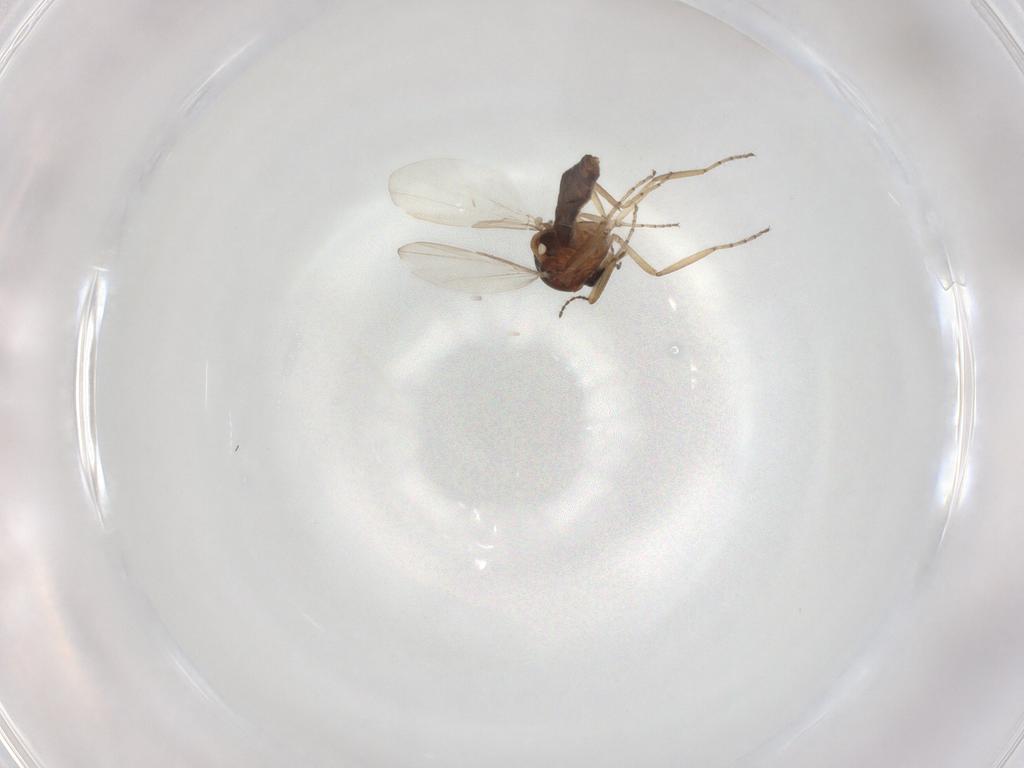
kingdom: Animalia
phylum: Arthropoda
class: Insecta
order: Diptera
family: Ceratopogonidae
